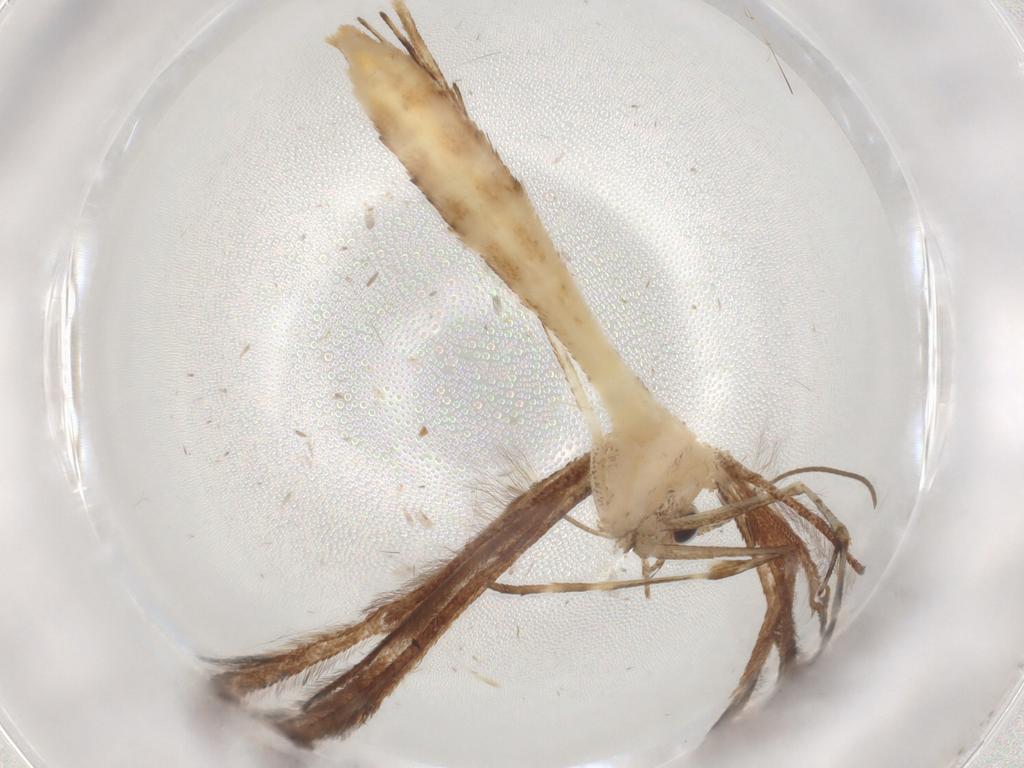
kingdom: Animalia
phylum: Arthropoda
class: Insecta
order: Lepidoptera
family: Pterophoridae
